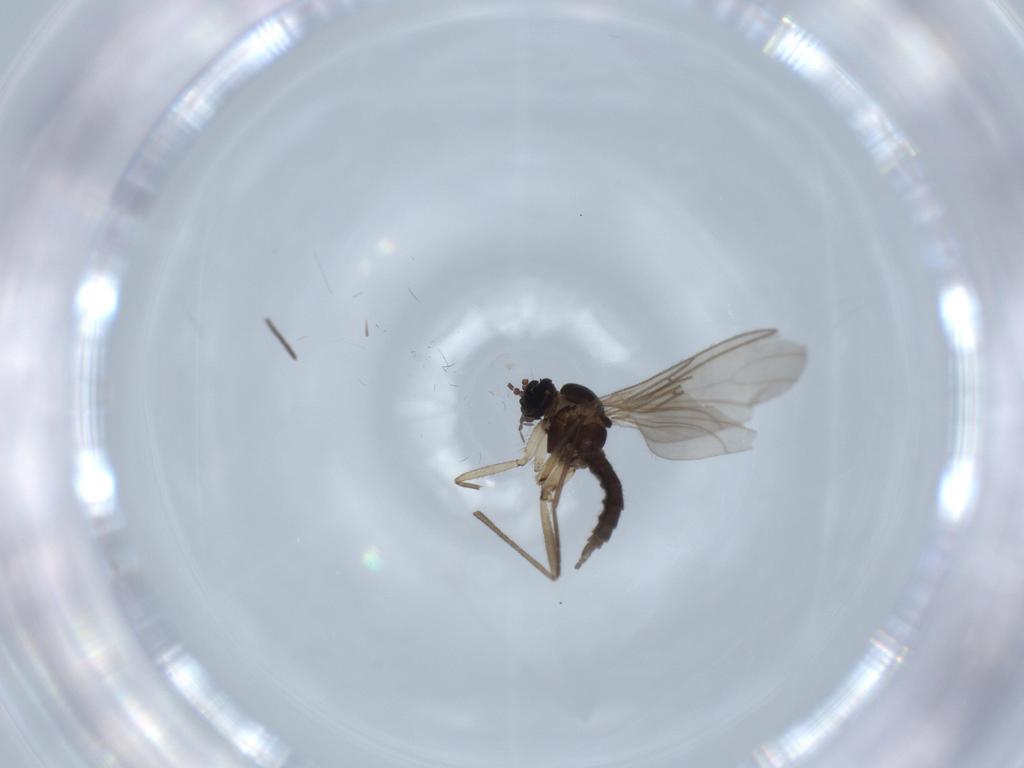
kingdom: Animalia
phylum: Arthropoda
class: Insecta
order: Diptera
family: Sciaridae
